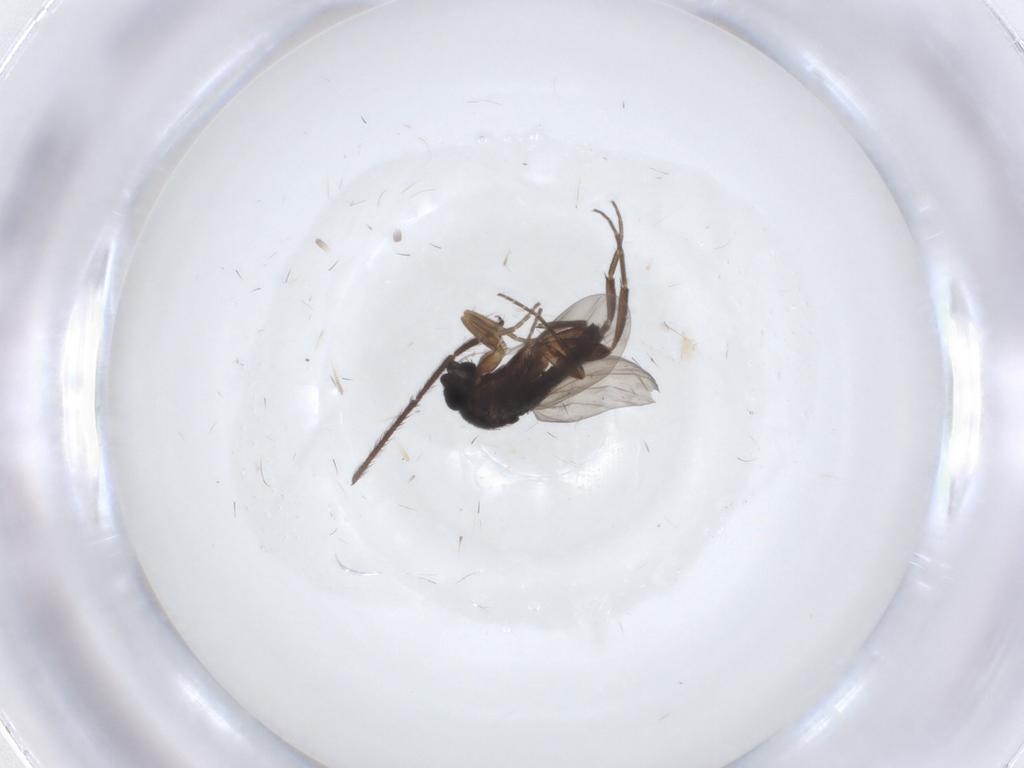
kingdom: Animalia
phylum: Arthropoda
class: Insecta
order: Diptera
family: Phoridae
